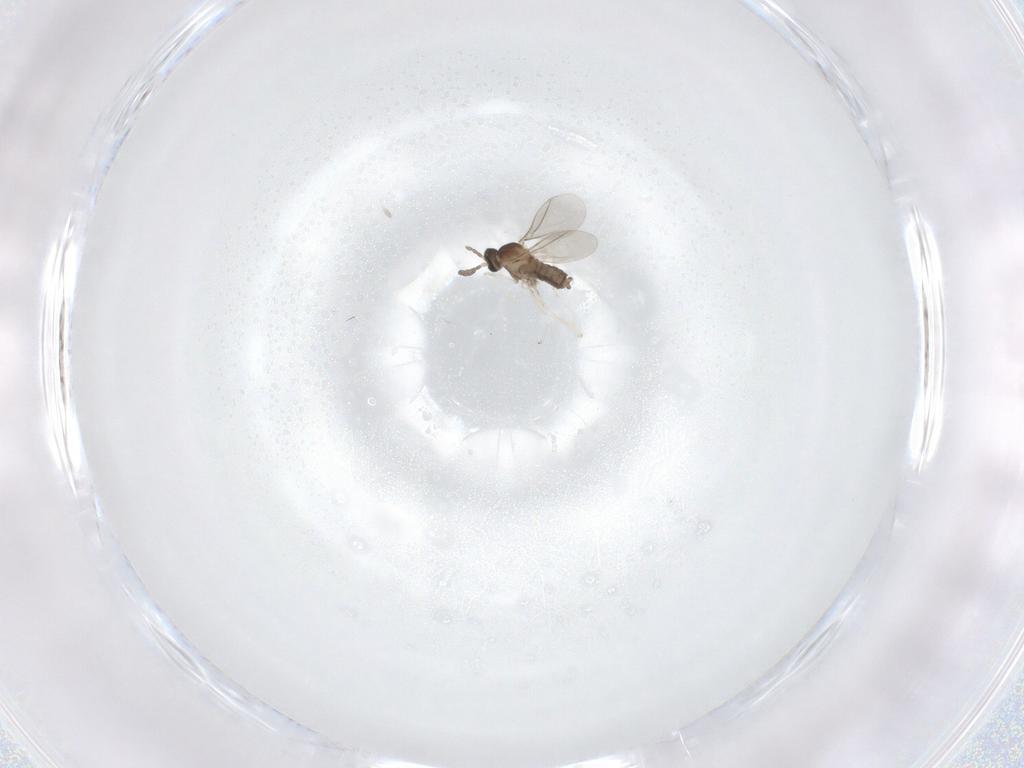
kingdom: Animalia
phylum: Arthropoda
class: Insecta
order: Diptera
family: Cecidomyiidae
